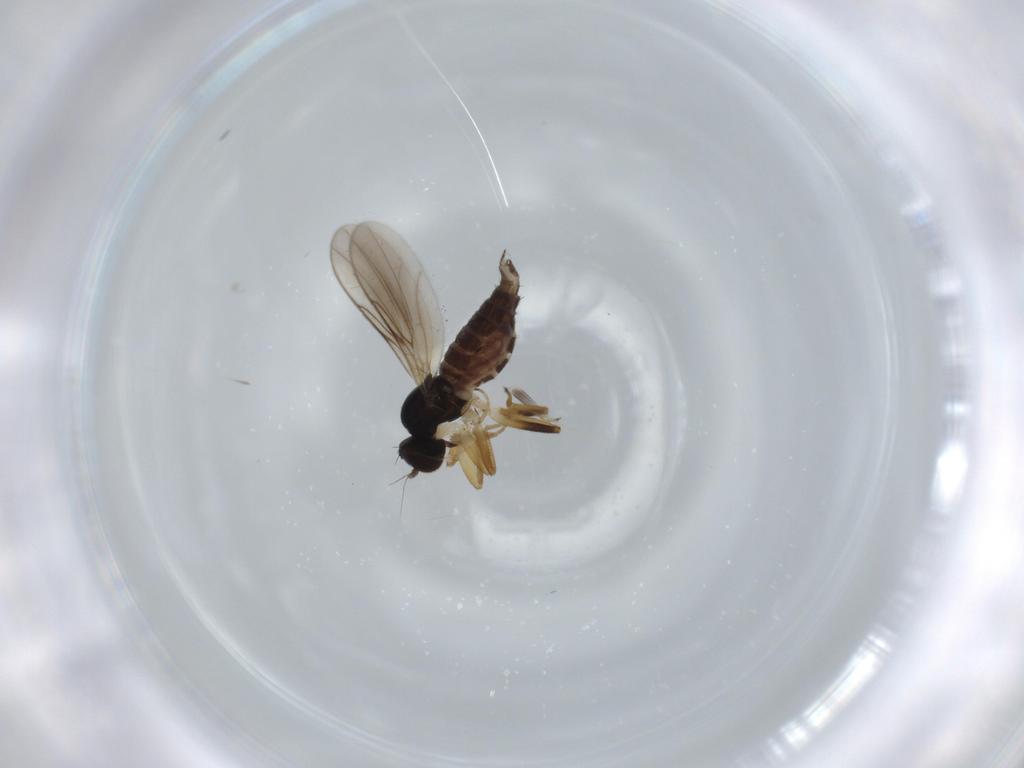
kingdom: Animalia
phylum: Arthropoda
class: Insecta
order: Diptera
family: Hybotidae
